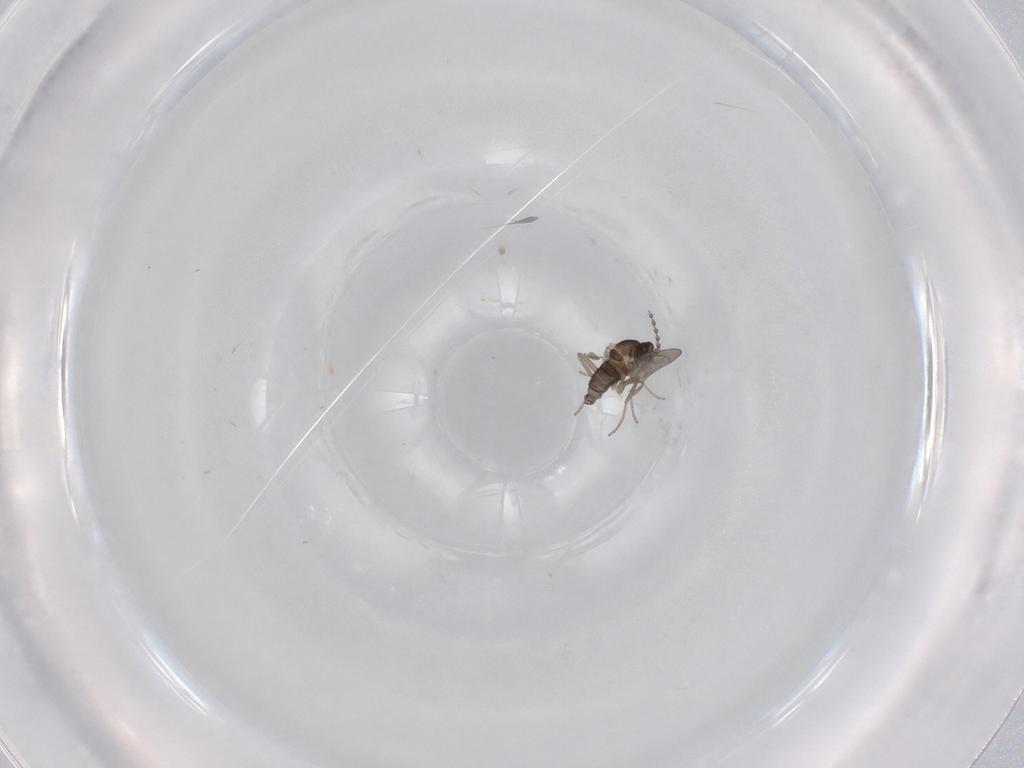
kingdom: Animalia
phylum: Arthropoda
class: Insecta
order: Diptera
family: Cecidomyiidae
